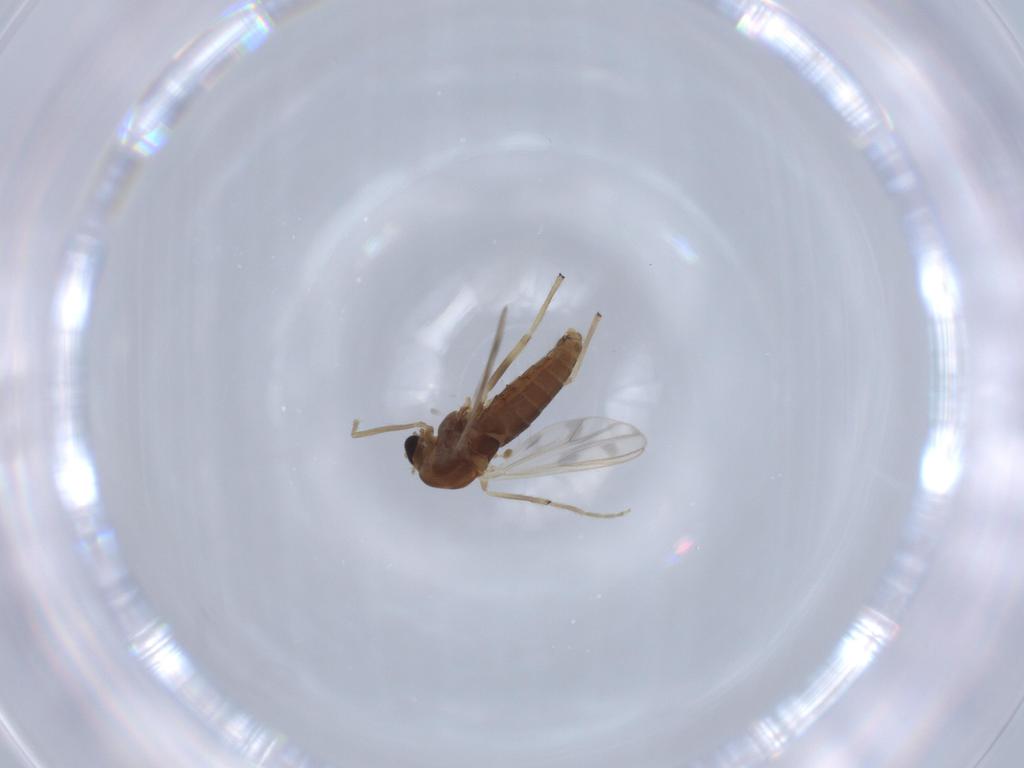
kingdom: Animalia
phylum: Arthropoda
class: Insecta
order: Diptera
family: Chironomidae
